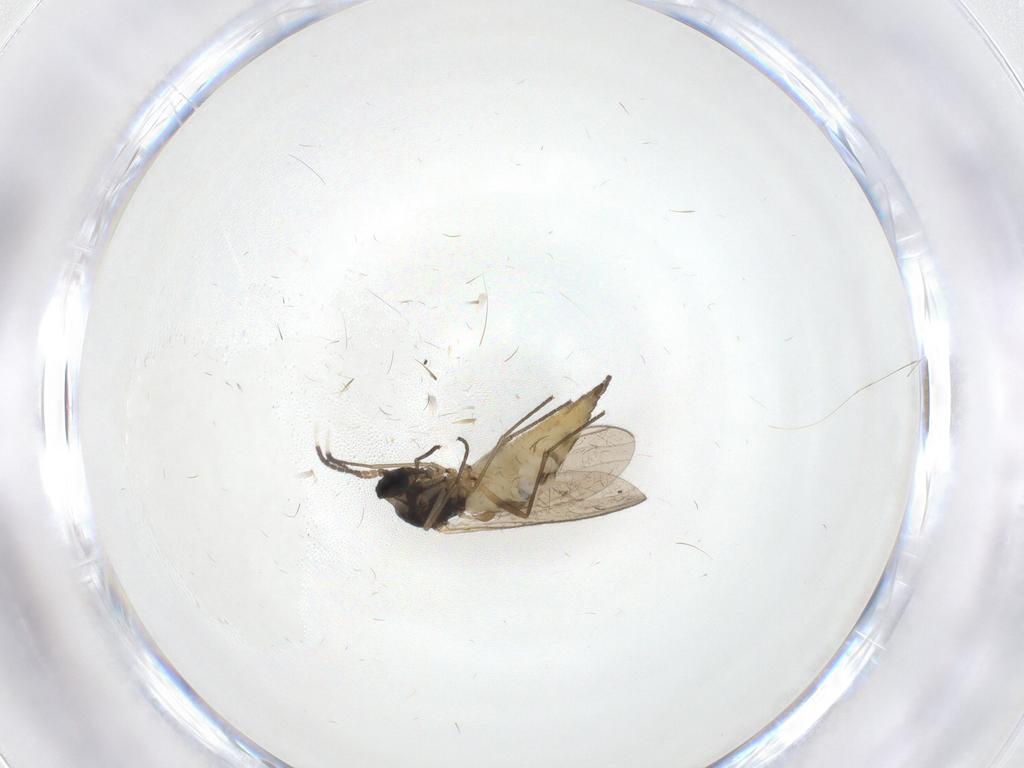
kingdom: Animalia
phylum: Arthropoda
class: Insecta
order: Diptera
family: Sciaridae
